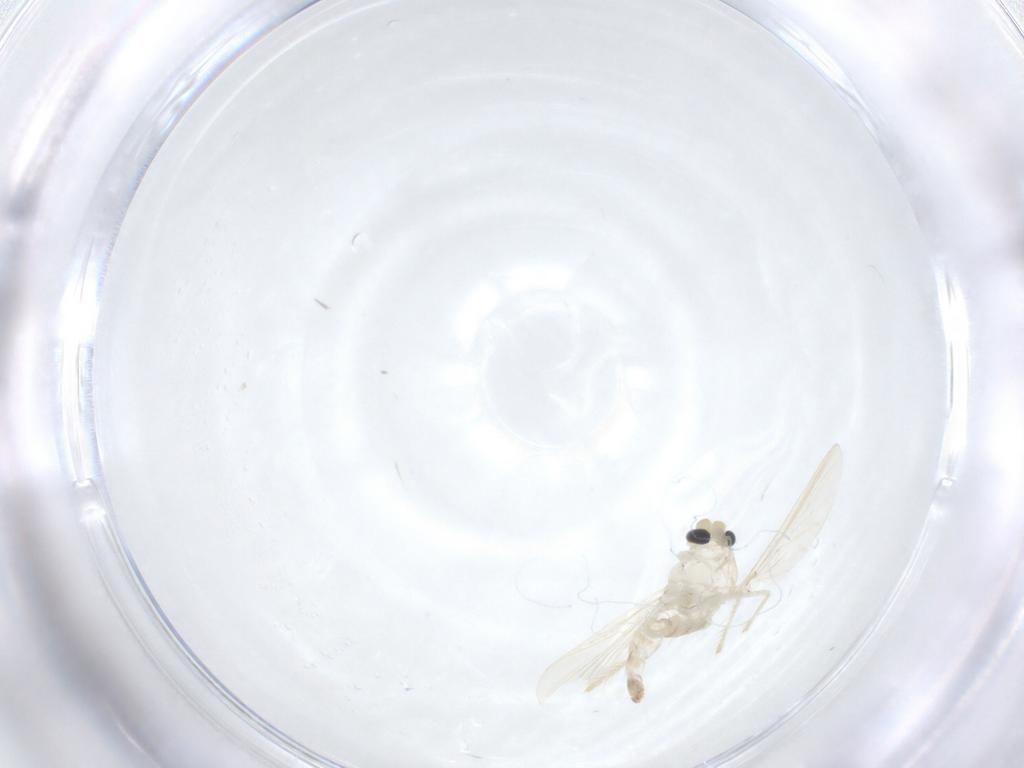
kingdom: Animalia
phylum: Arthropoda
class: Insecta
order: Diptera
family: Chironomidae
